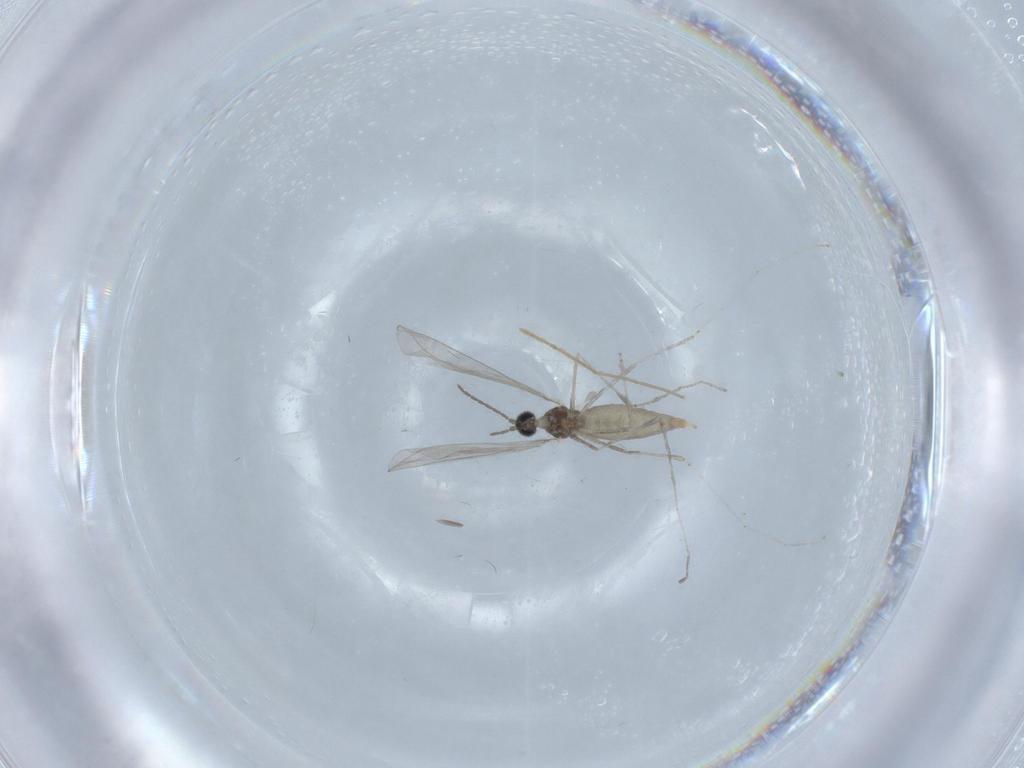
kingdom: Animalia
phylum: Arthropoda
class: Insecta
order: Diptera
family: Cecidomyiidae
